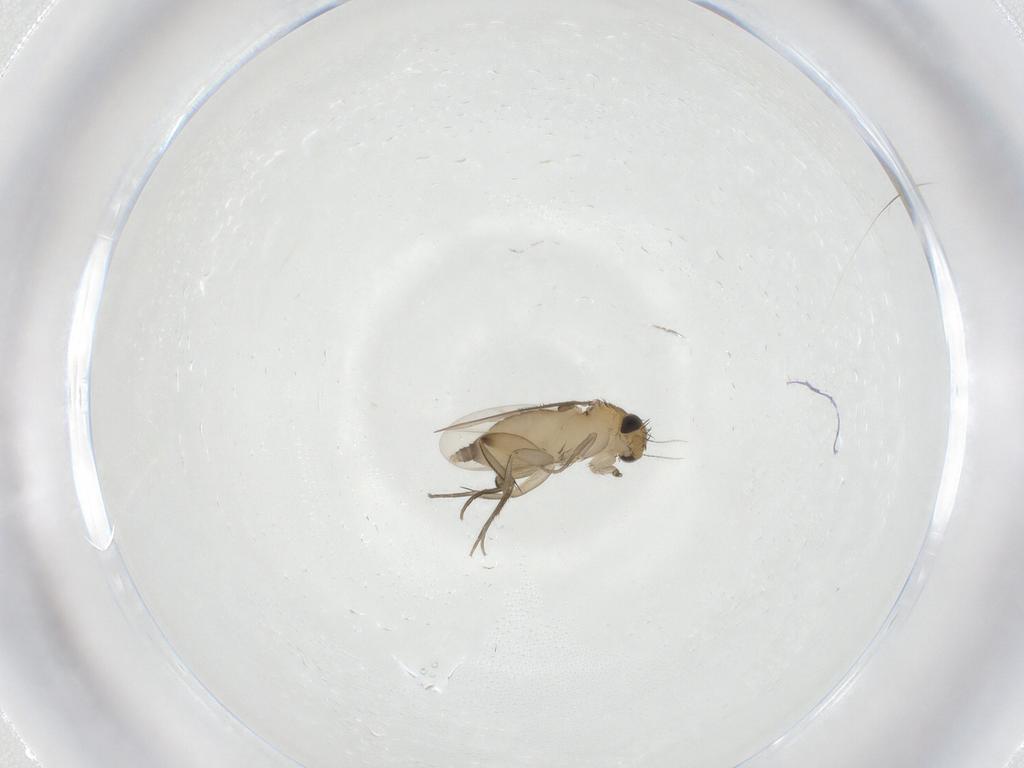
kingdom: Animalia
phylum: Arthropoda
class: Insecta
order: Diptera
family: Phoridae
